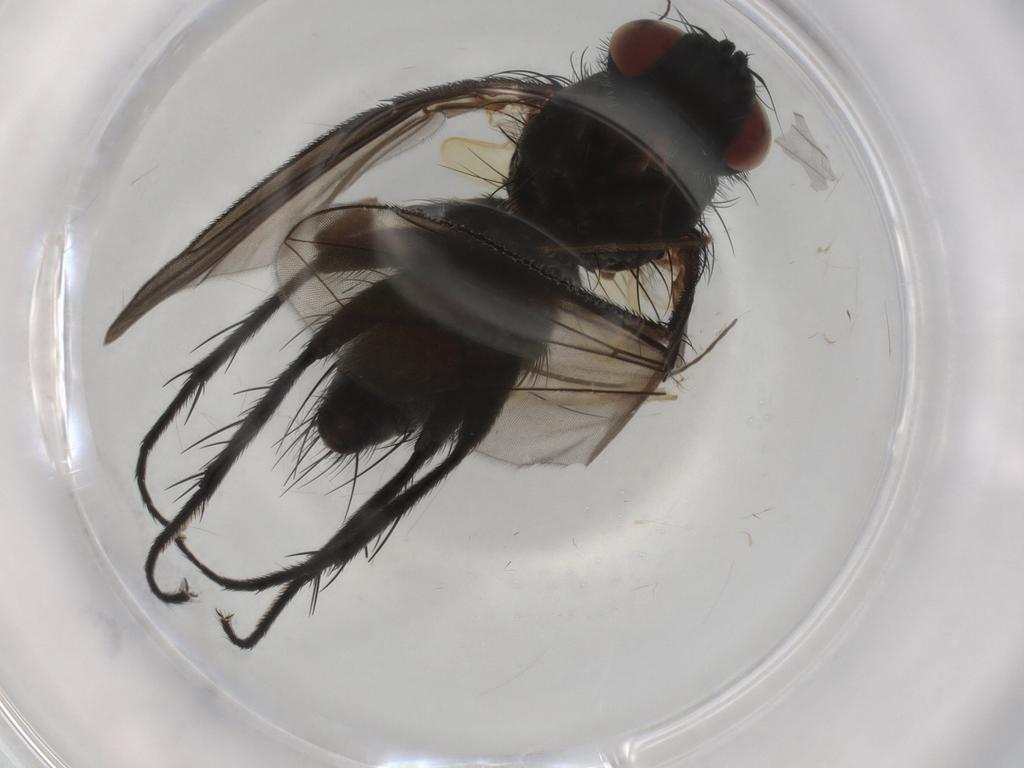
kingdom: Animalia
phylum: Arthropoda
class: Insecta
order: Diptera
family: Tachinidae
